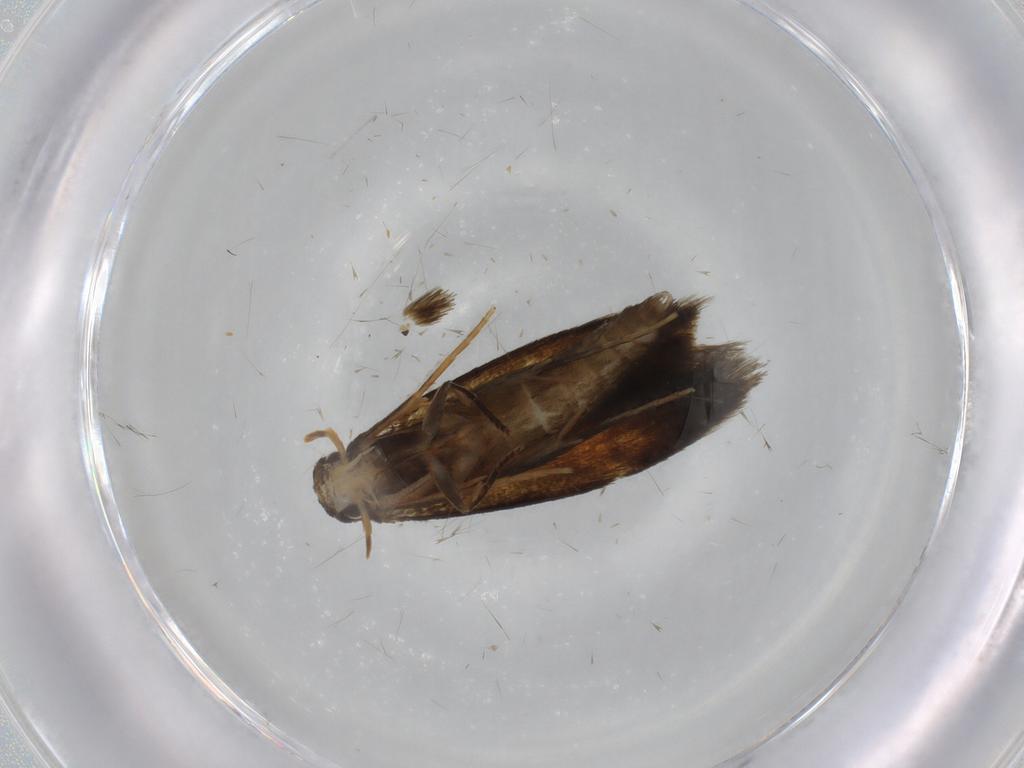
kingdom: Animalia
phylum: Arthropoda
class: Insecta
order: Lepidoptera
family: Tineidae
